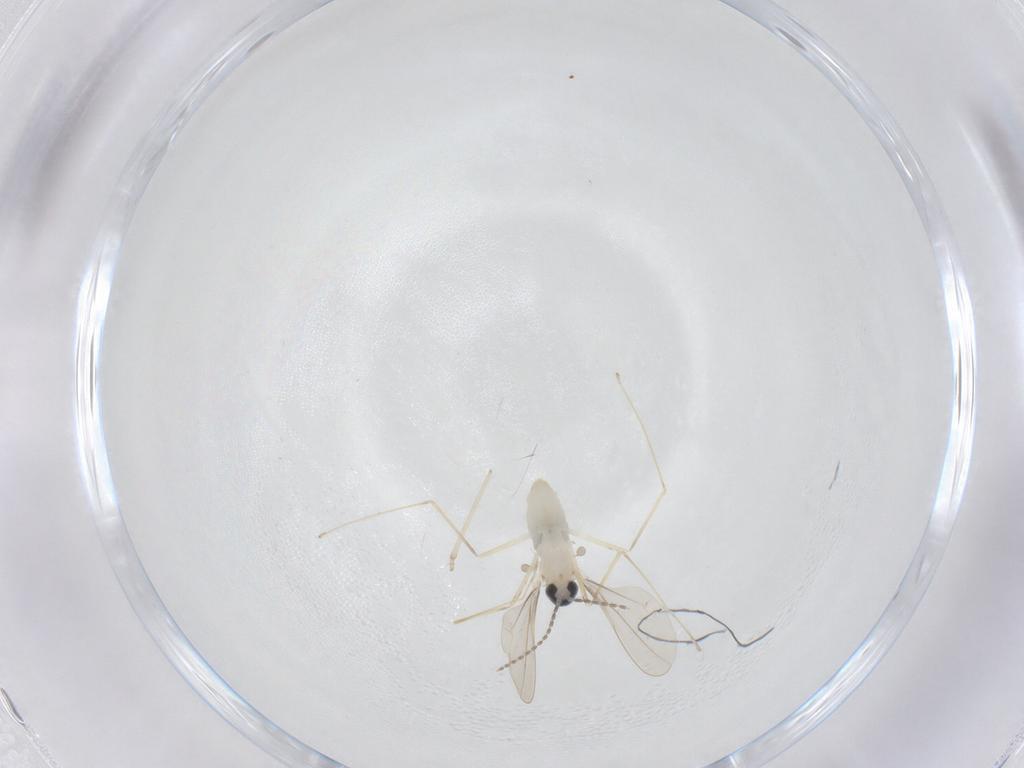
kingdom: Animalia
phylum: Arthropoda
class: Insecta
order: Diptera
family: Cecidomyiidae
